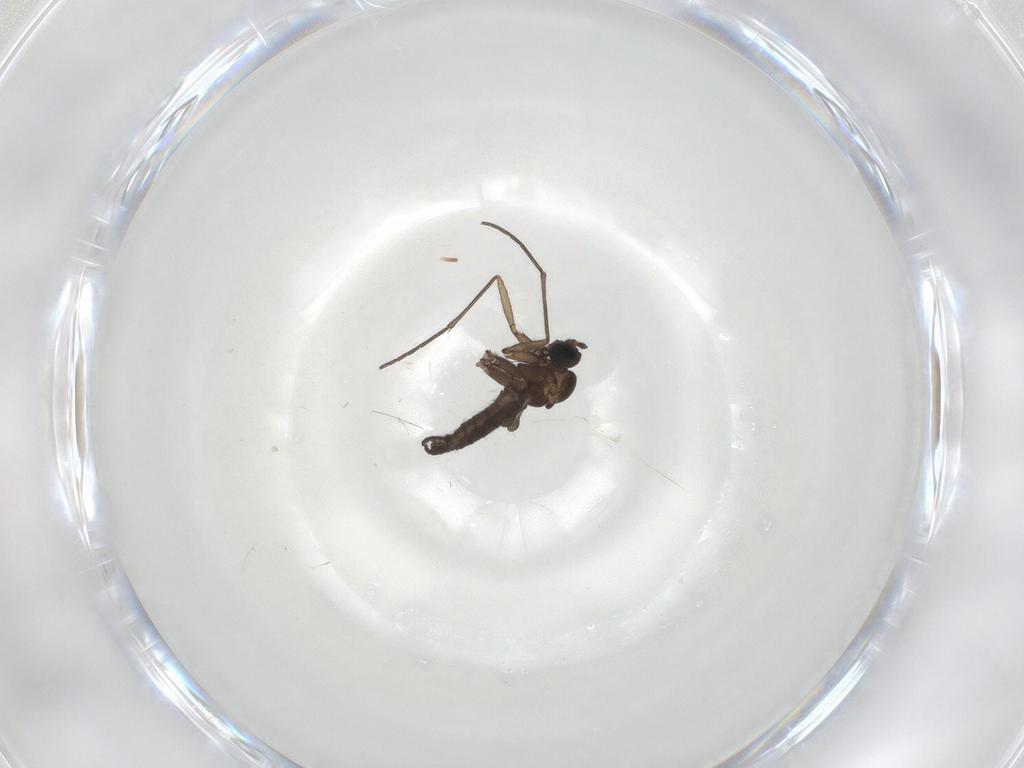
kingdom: Animalia
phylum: Arthropoda
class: Insecta
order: Diptera
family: Sciaridae
